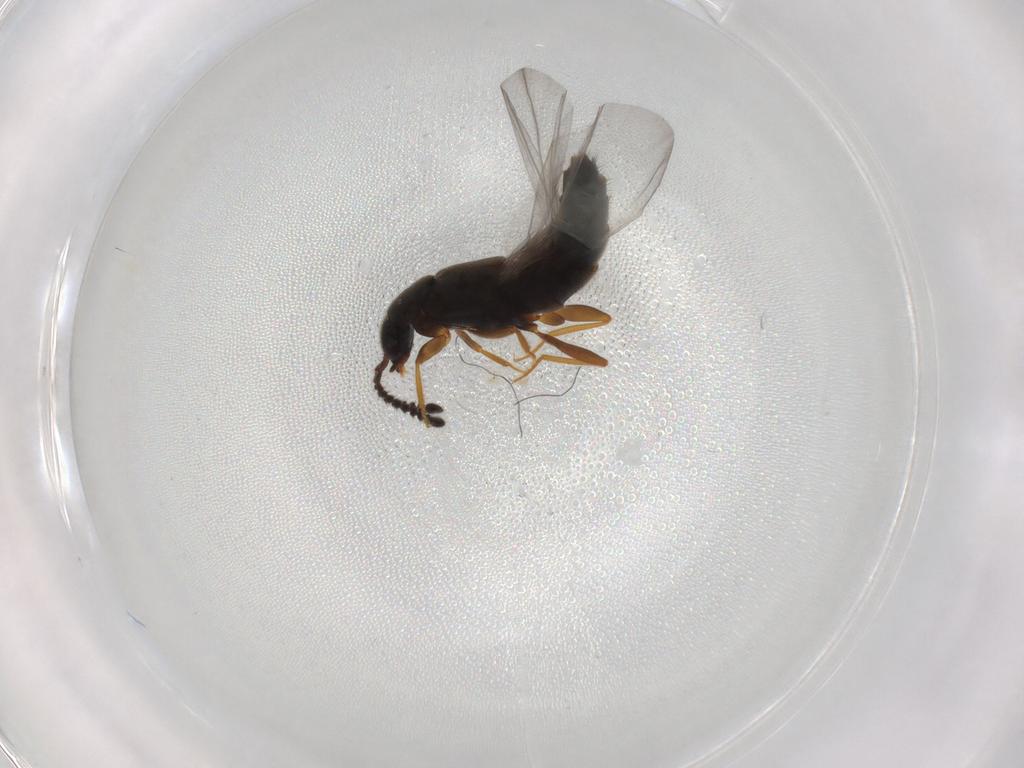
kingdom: Animalia
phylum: Arthropoda
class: Insecta
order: Coleoptera
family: Staphylinidae
